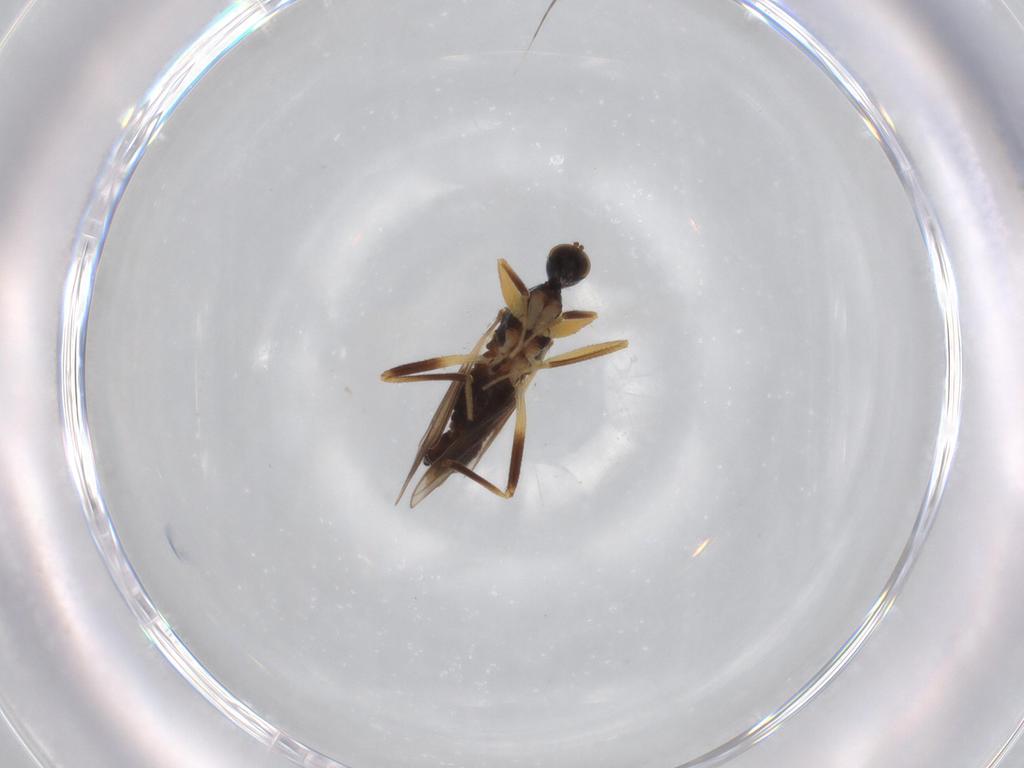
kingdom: Animalia
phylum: Arthropoda
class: Insecta
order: Diptera
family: Hybotidae
